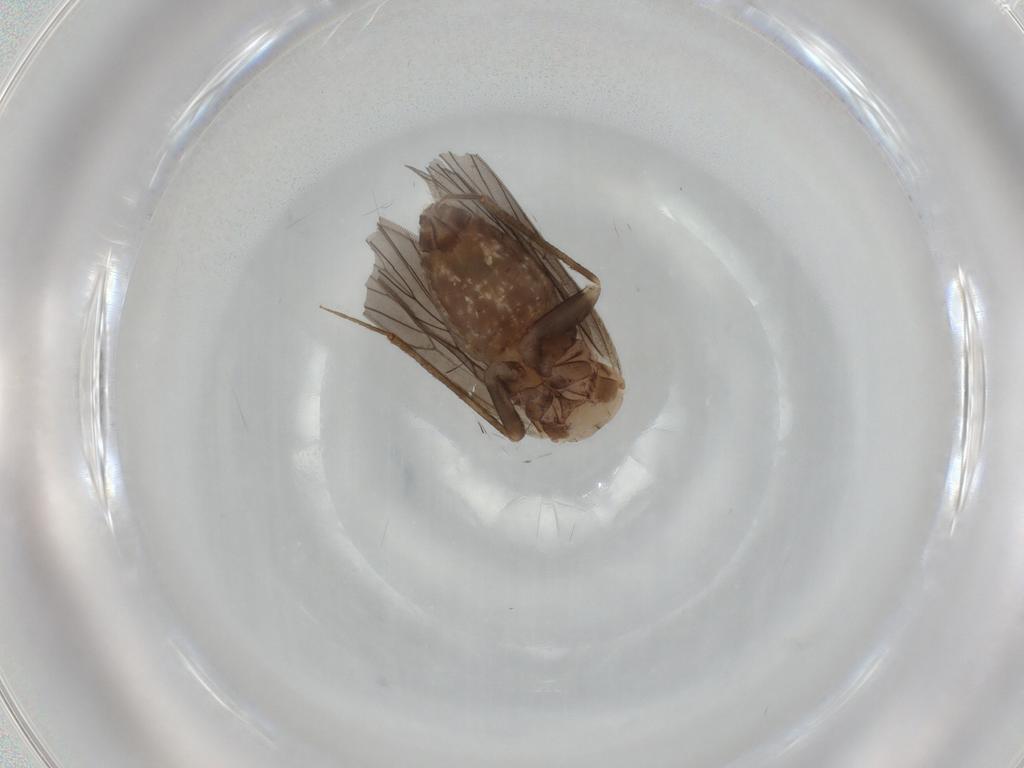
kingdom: Animalia
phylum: Arthropoda
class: Insecta
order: Psocodea
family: Lepidopsocidae
